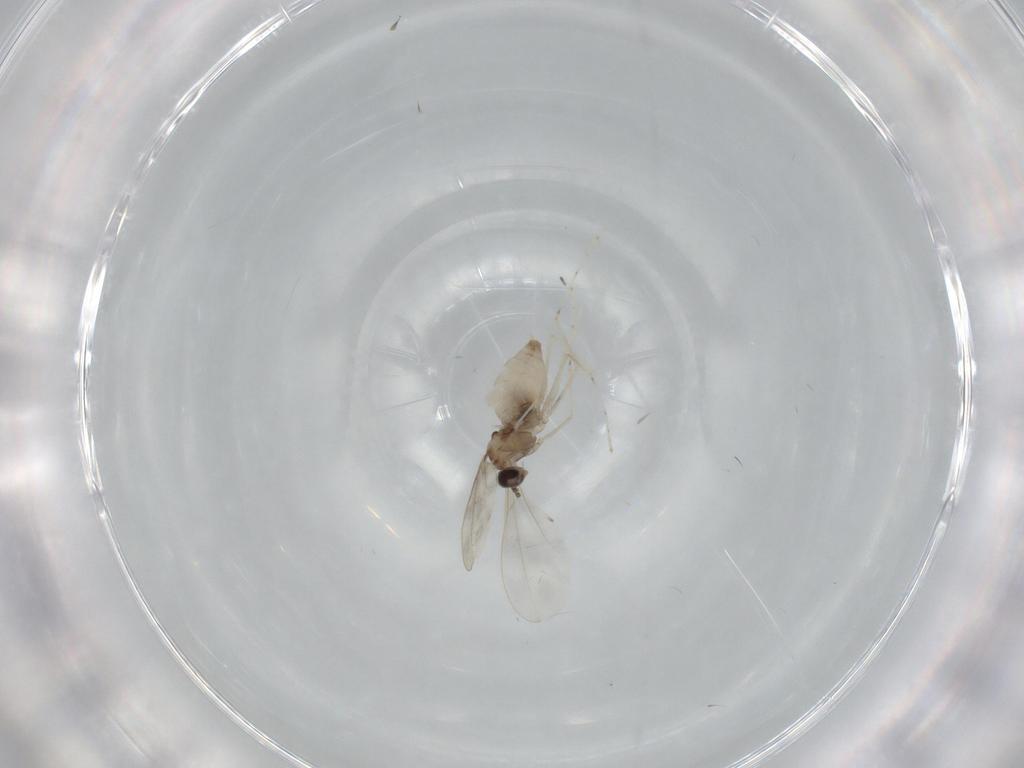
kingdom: Animalia
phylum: Arthropoda
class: Insecta
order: Diptera
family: Cecidomyiidae
